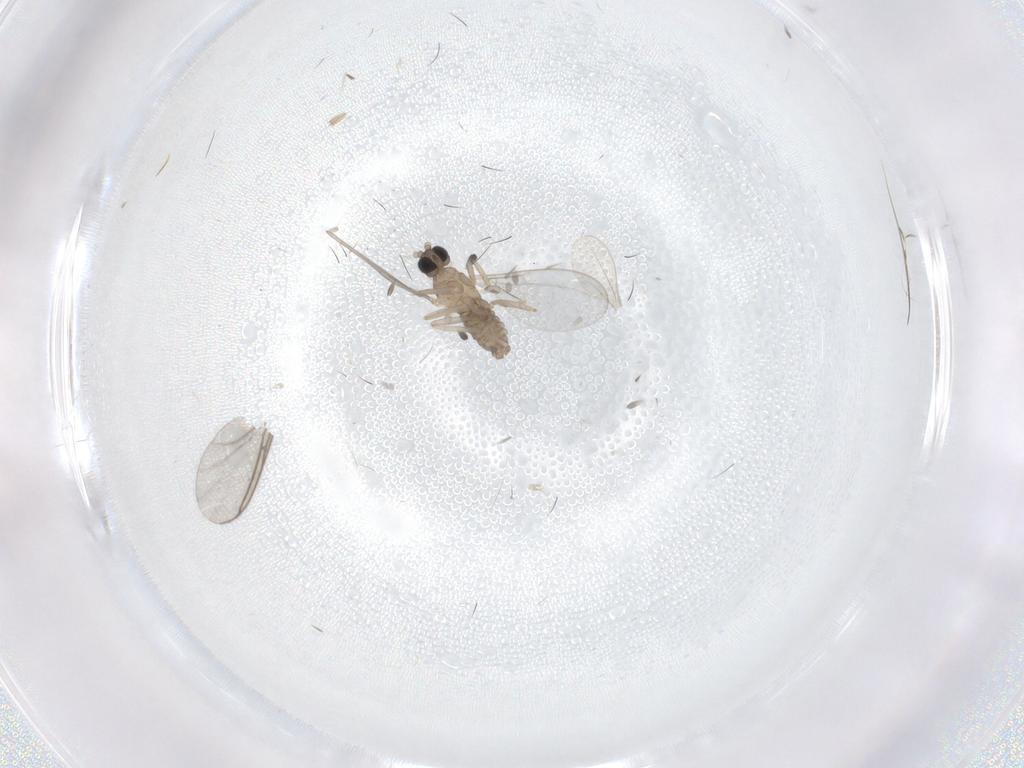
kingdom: Animalia
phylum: Arthropoda
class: Insecta
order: Diptera
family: Cecidomyiidae
